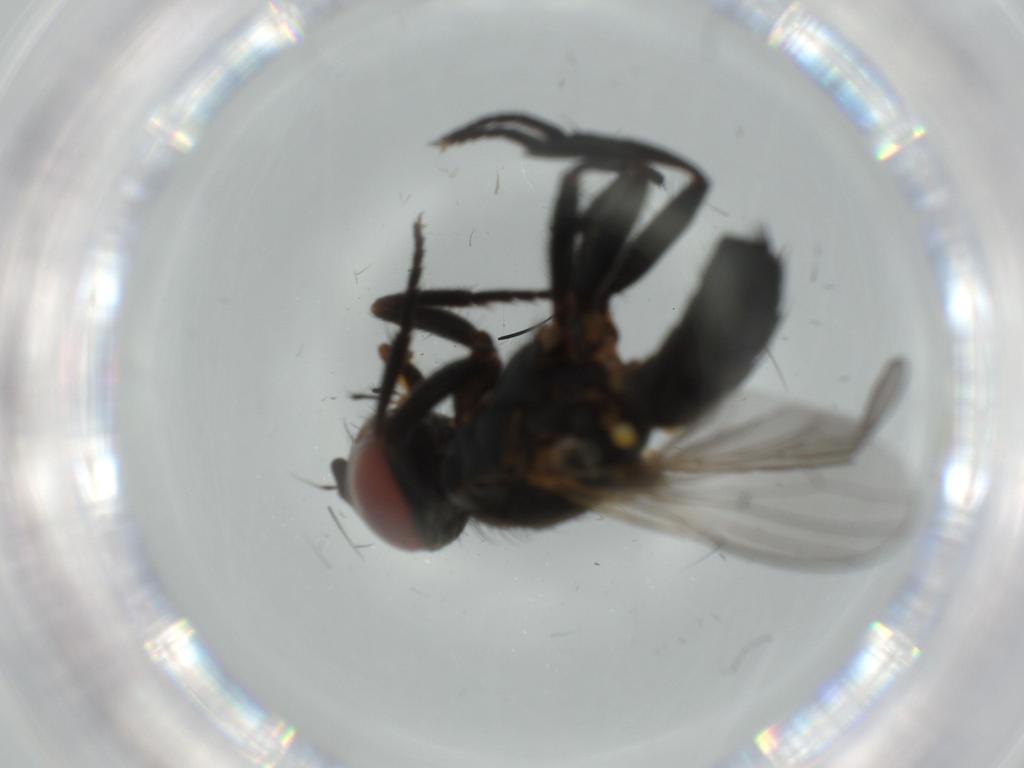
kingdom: Animalia
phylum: Arthropoda
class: Insecta
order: Diptera
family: Anthomyiidae
